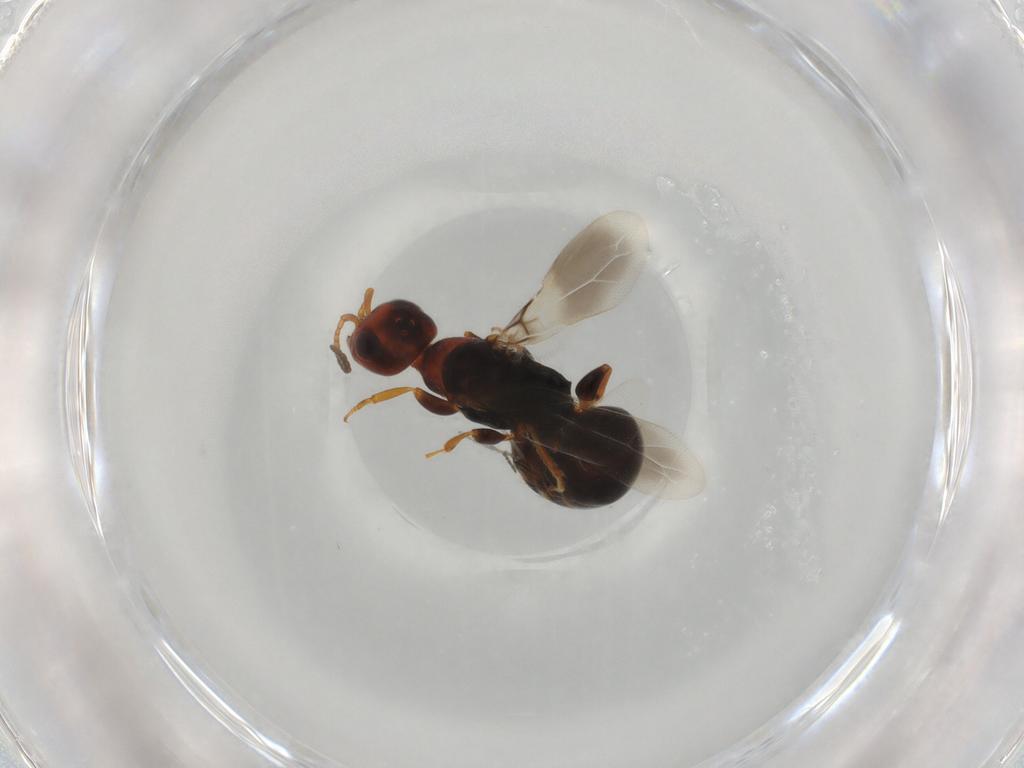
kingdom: Animalia
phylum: Arthropoda
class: Insecta
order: Hymenoptera
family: Bethylidae
